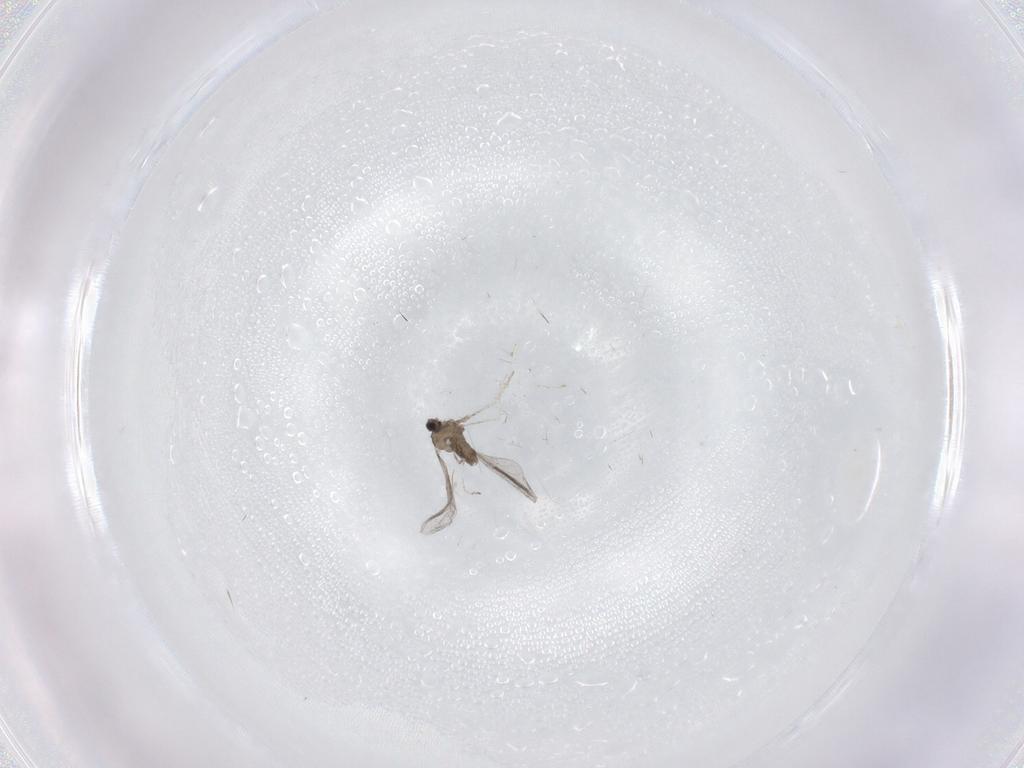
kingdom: Animalia
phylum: Arthropoda
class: Insecta
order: Diptera
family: Cecidomyiidae
